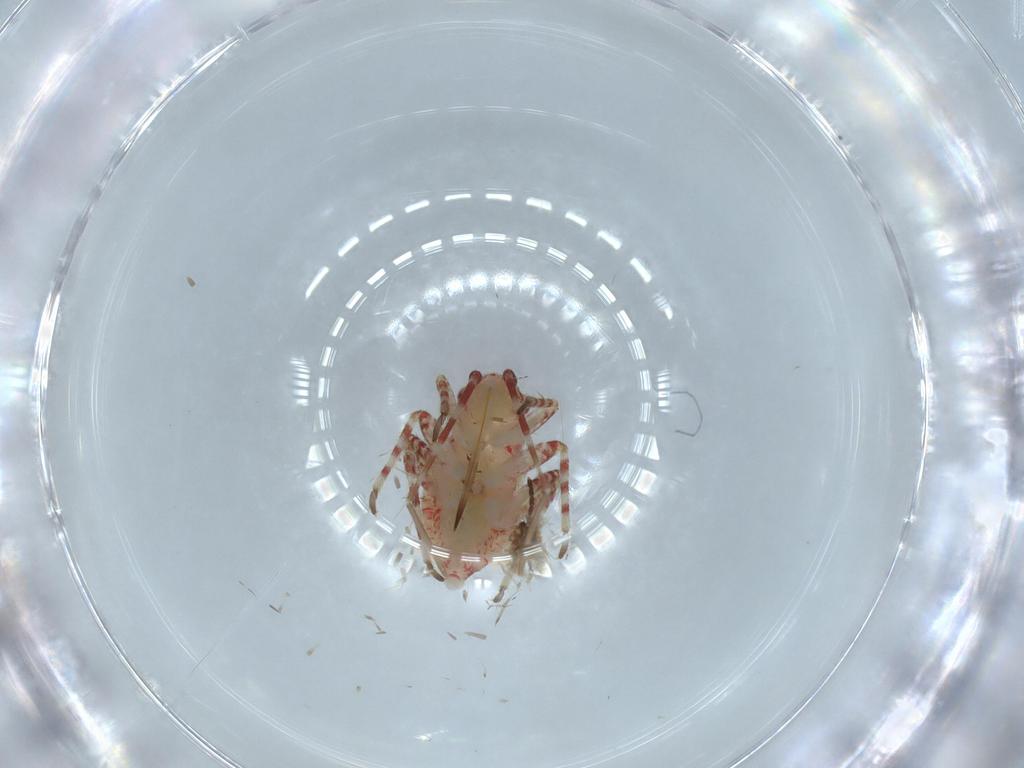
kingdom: Animalia
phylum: Arthropoda
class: Insecta
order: Hemiptera
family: Miridae
